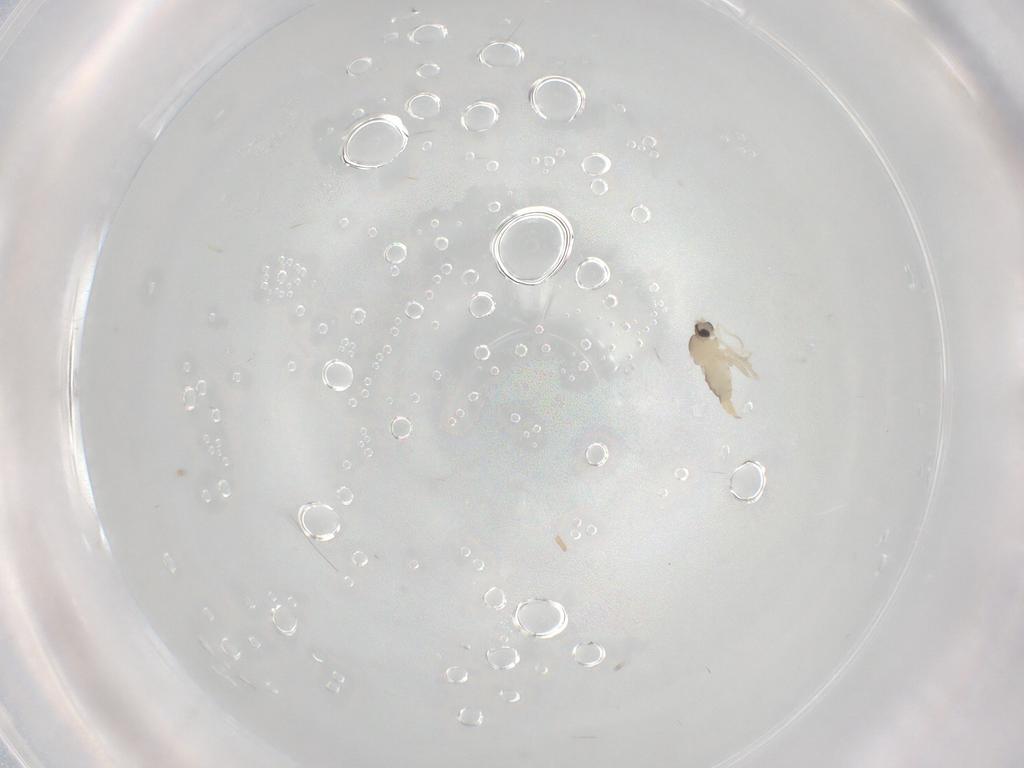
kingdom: Animalia
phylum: Arthropoda
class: Insecta
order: Diptera
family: Cecidomyiidae
